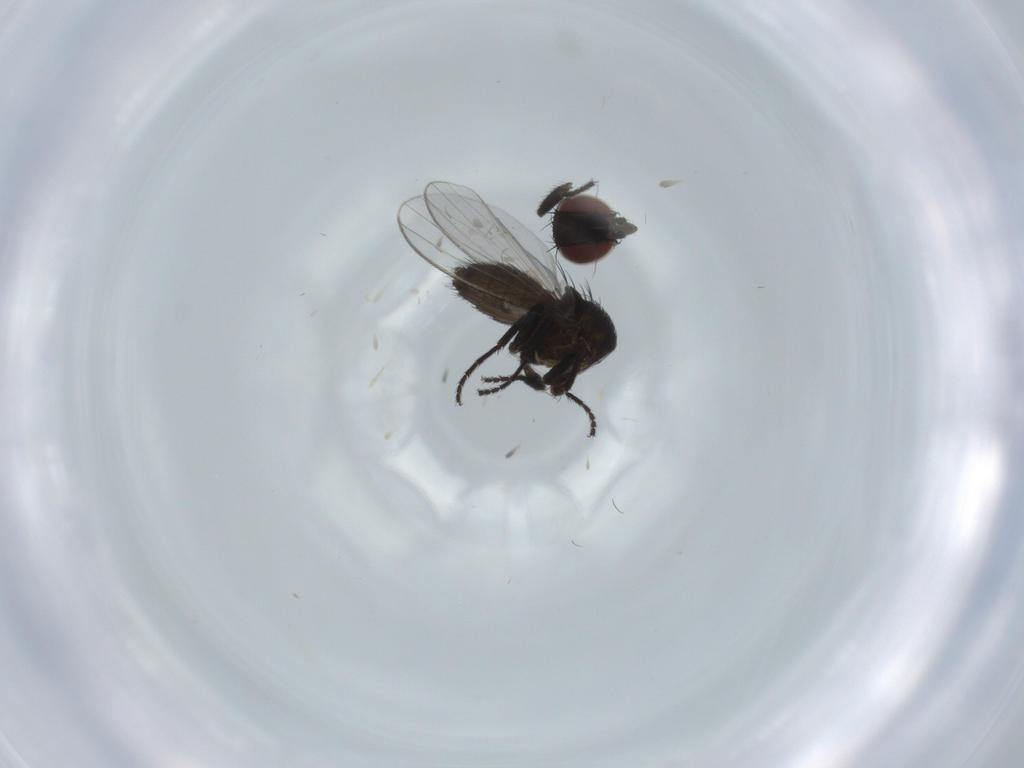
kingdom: Animalia
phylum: Arthropoda
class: Insecta
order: Diptera
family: Milichiidae
